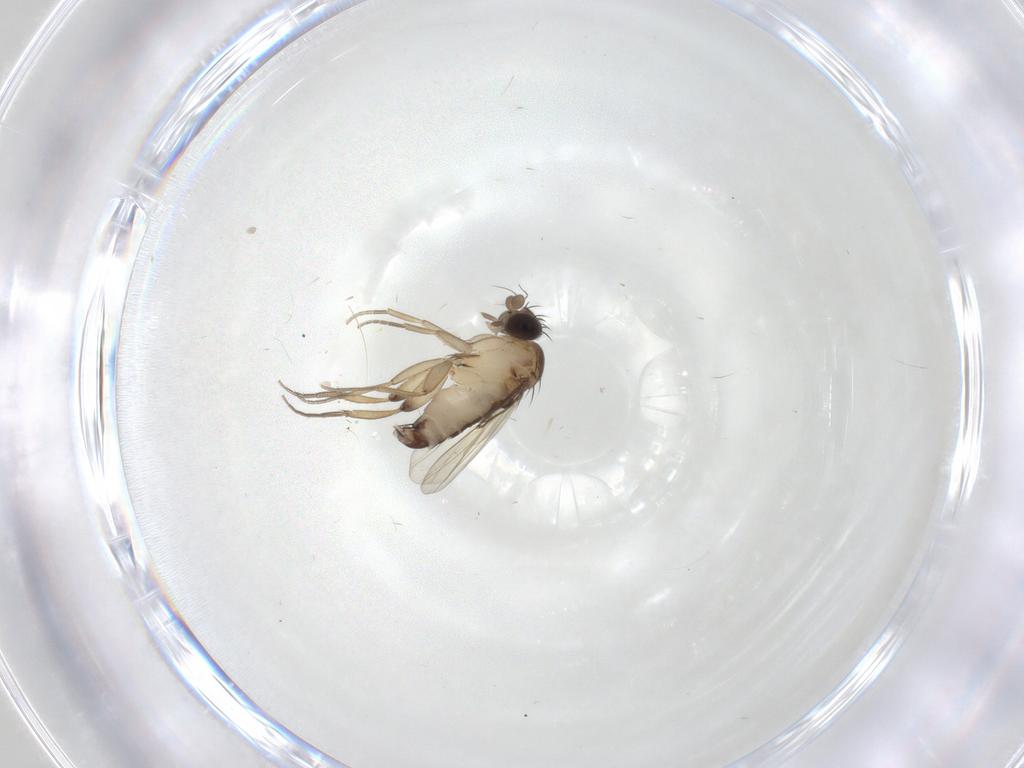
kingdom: Animalia
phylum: Arthropoda
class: Insecta
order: Diptera
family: Phoridae
